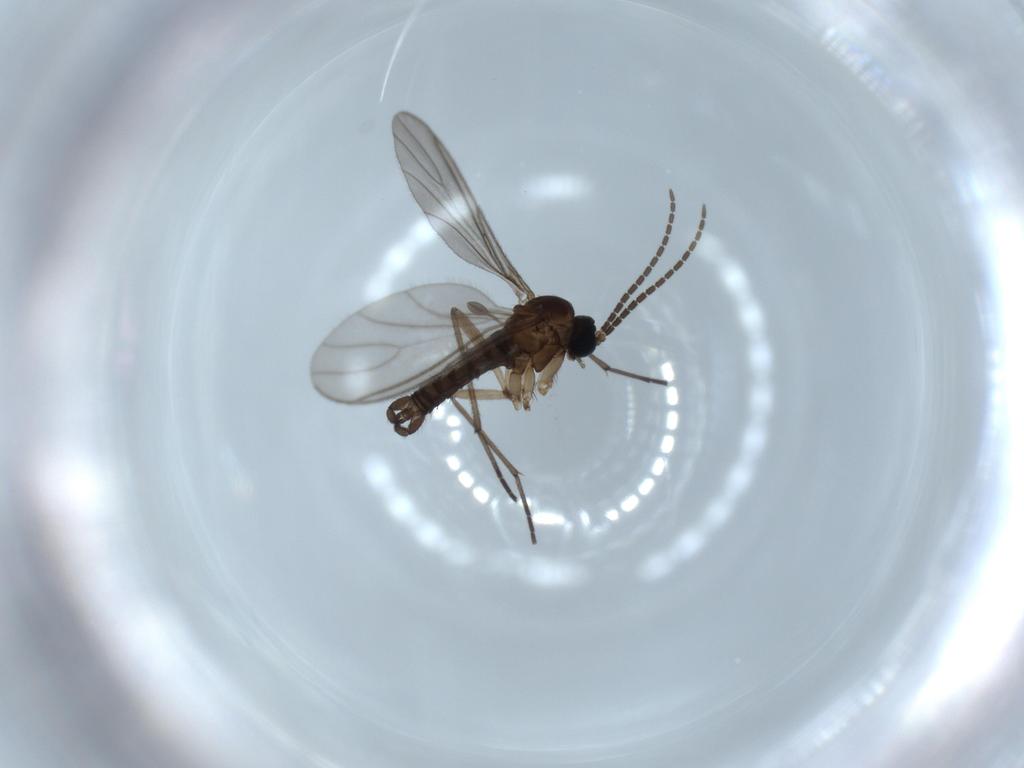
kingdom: Animalia
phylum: Arthropoda
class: Insecta
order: Diptera
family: Sciaridae
